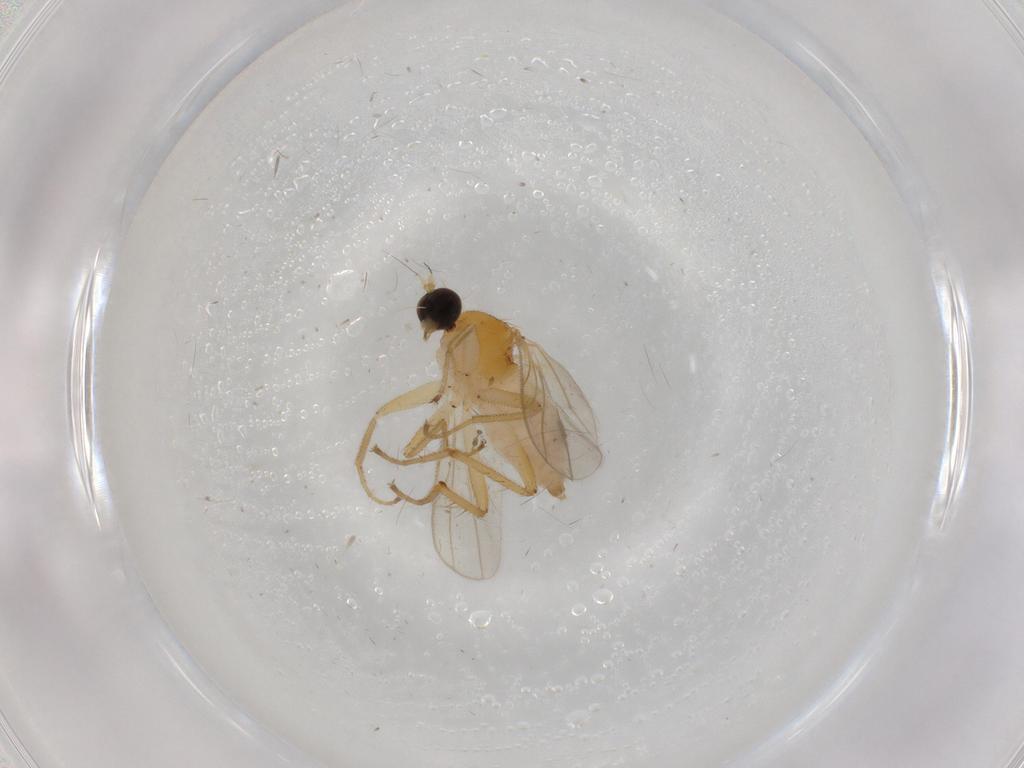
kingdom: Animalia
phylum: Arthropoda
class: Insecta
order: Diptera
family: Hybotidae
